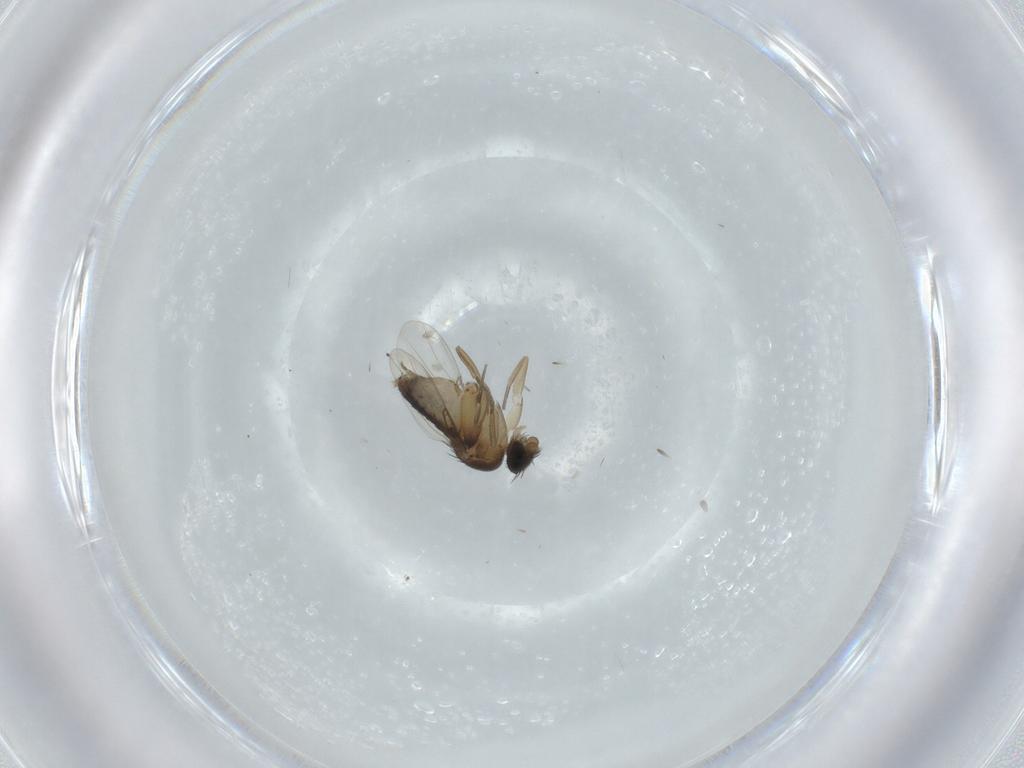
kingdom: Animalia
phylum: Arthropoda
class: Insecta
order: Diptera
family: Phoridae
